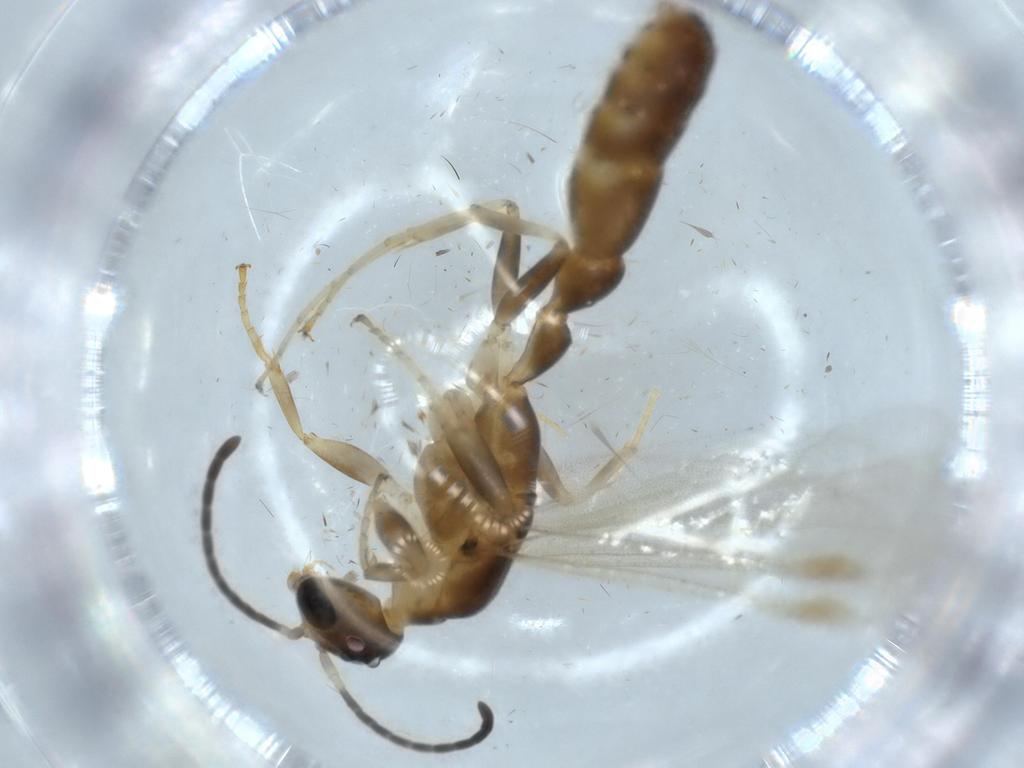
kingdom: Animalia
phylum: Arthropoda
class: Insecta
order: Hymenoptera
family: Formicidae
